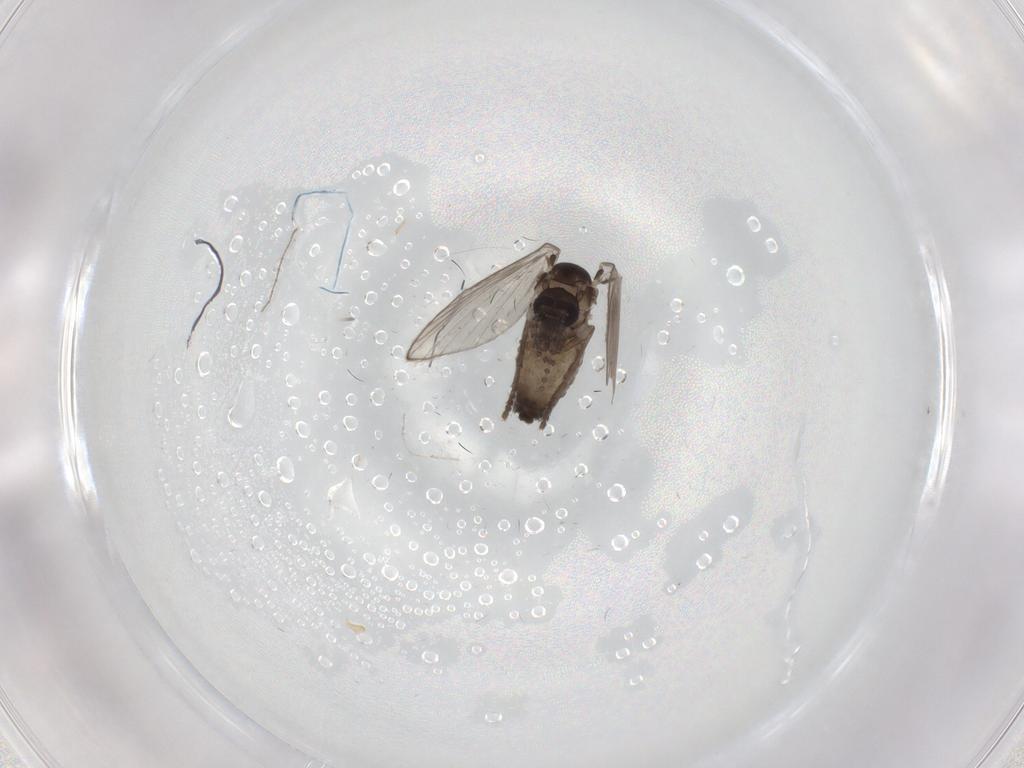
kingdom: Animalia
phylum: Arthropoda
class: Insecta
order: Diptera
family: Psychodidae
